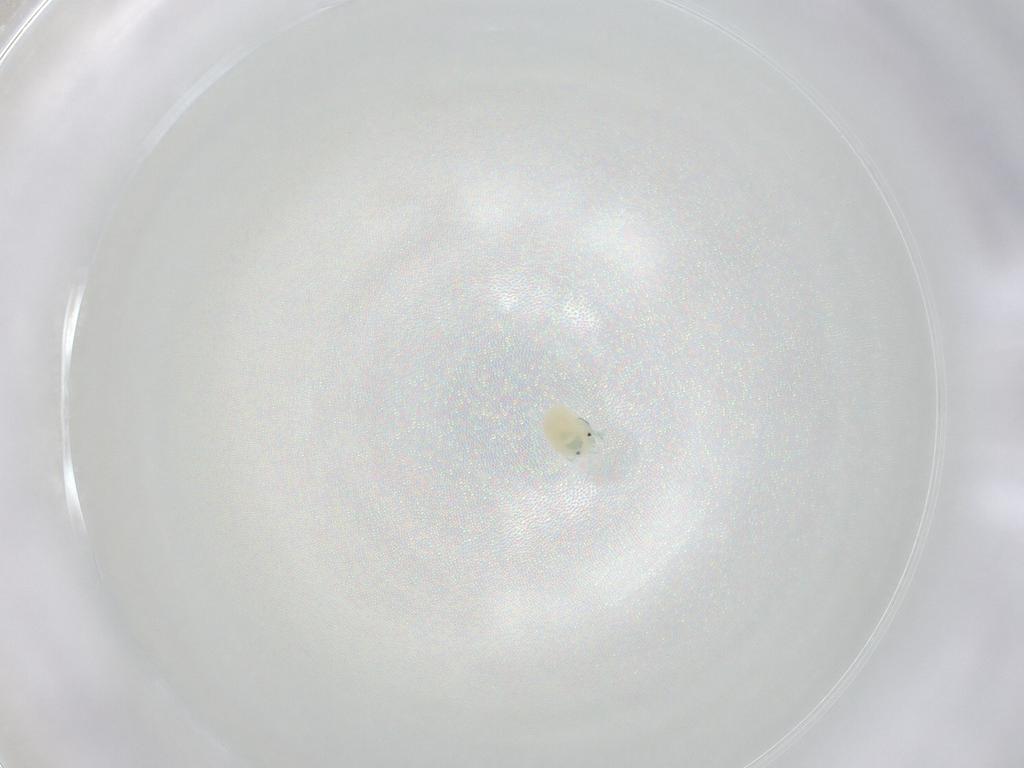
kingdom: Animalia
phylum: Arthropoda
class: Arachnida
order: Trombidiformes
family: Arrenuridae
